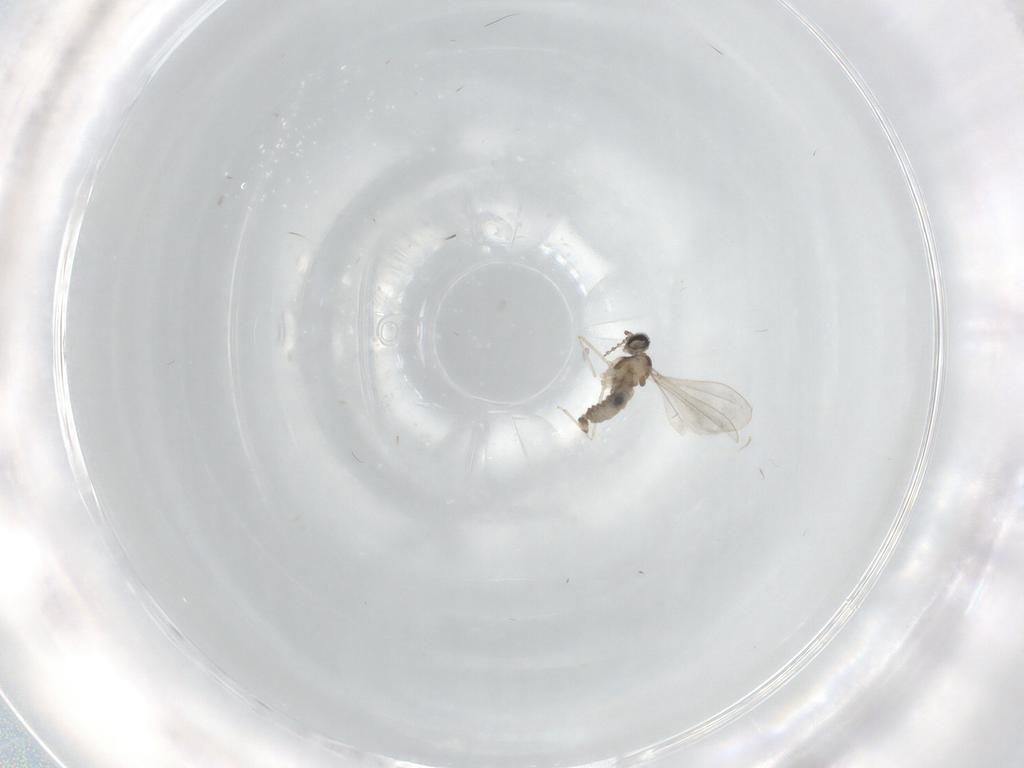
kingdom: Animalia
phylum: Arthropoda
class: Insecta
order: Diptera
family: Cecidomyiidae
